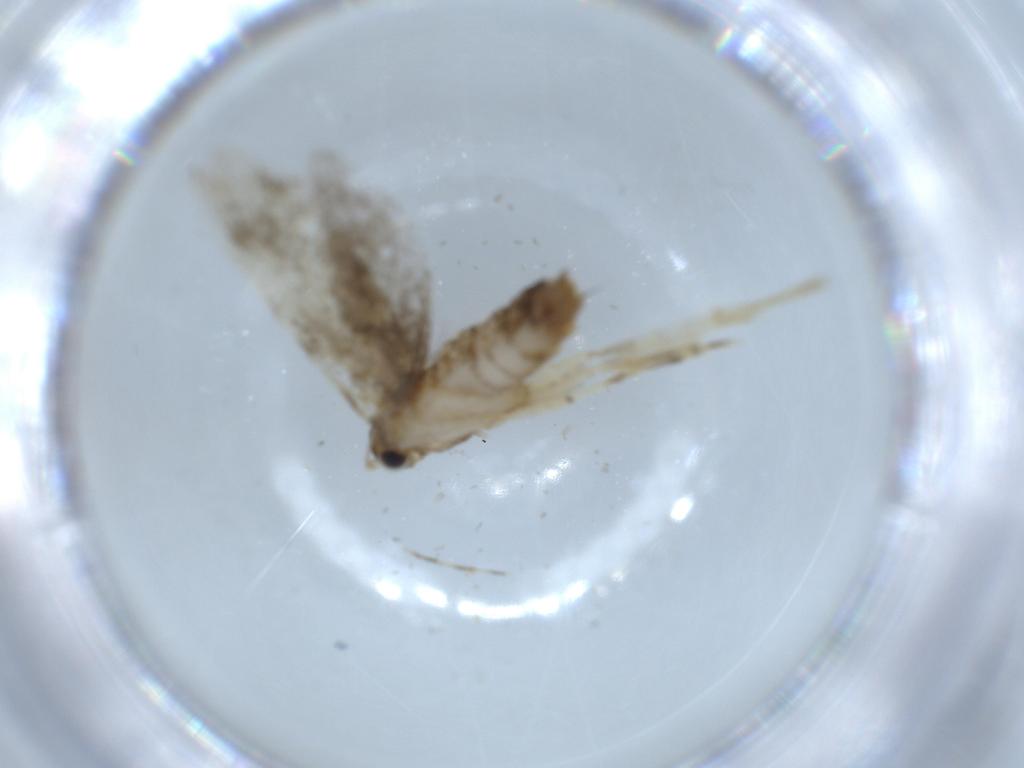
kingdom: Animalia
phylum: Arthropoda
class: Insecta
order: Lepidoptera
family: Tineidae
